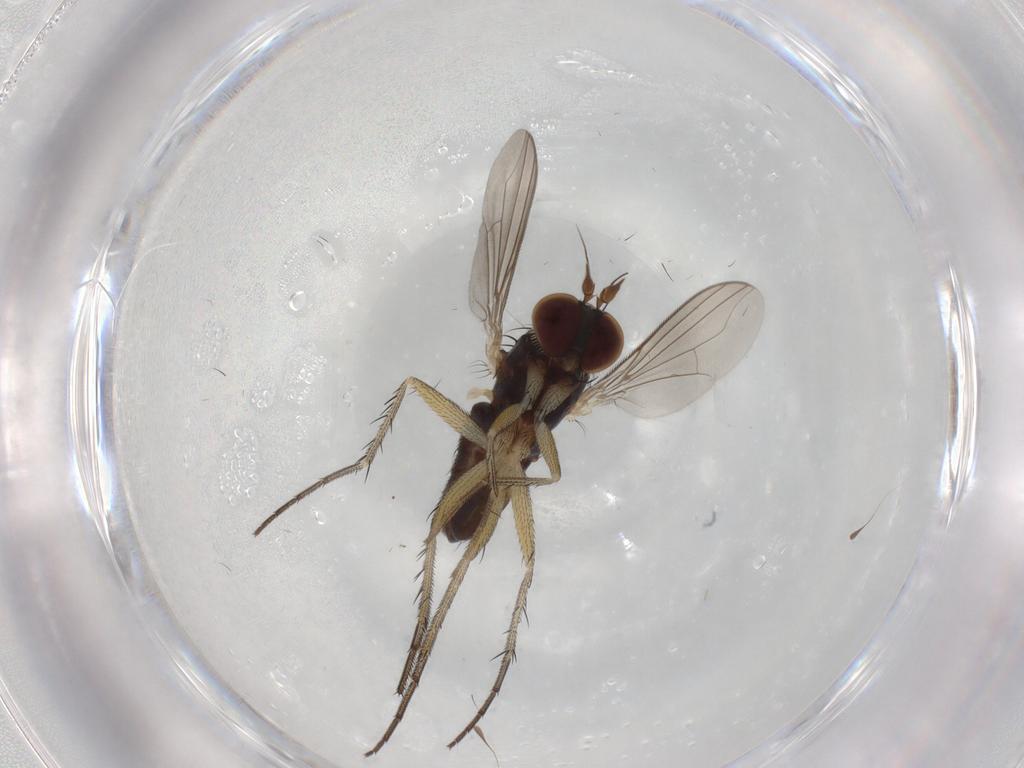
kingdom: Animalia
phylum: Arthropoda
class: Insecta
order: Diptera
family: Dolichopodidae
